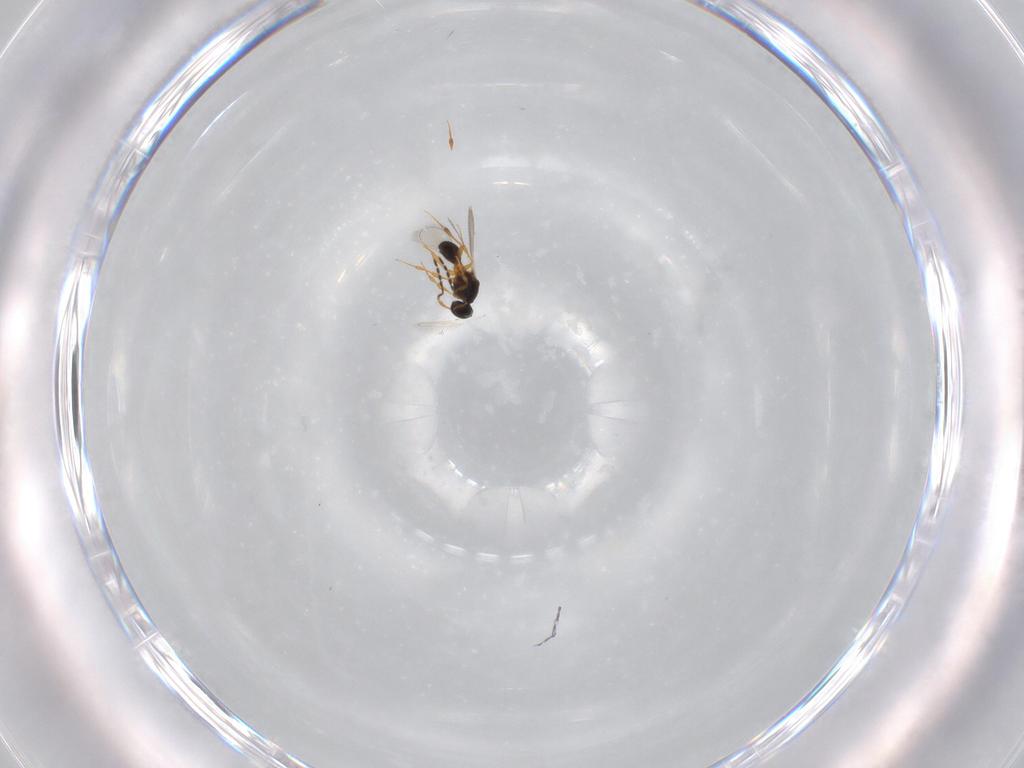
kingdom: Animalia
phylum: Arthropoda
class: Insecta
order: Hymenoptera
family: Platygastridae
